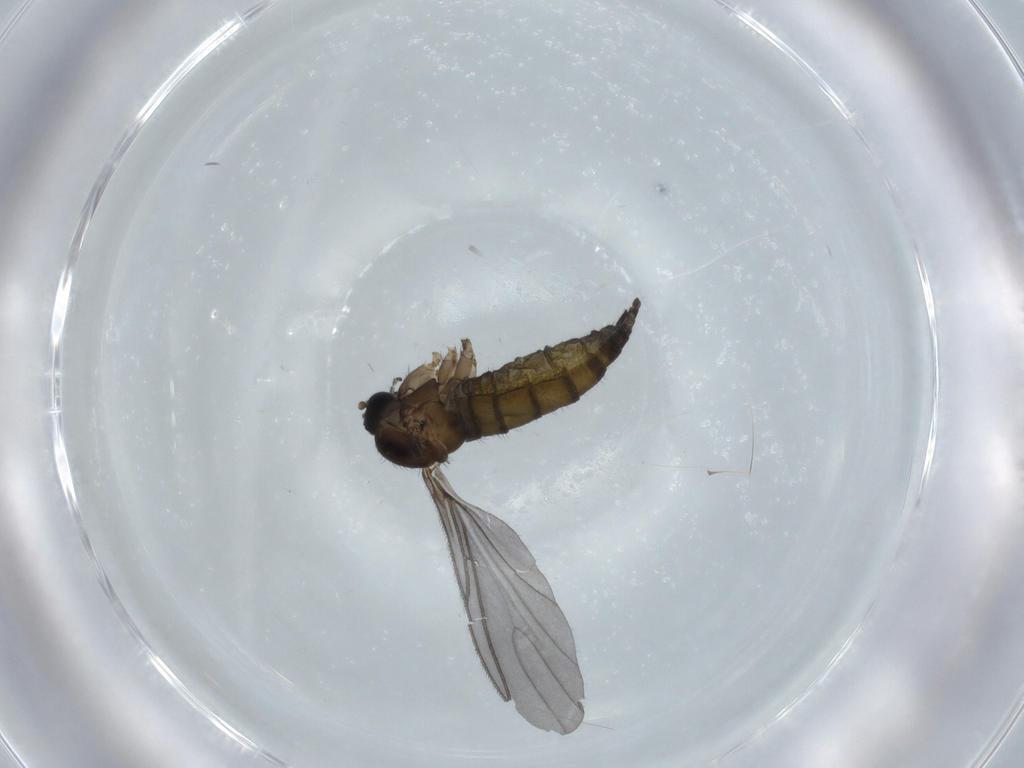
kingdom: Animalia
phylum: Arthropoda
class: Insecta
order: Diptera
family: Sciaridae
